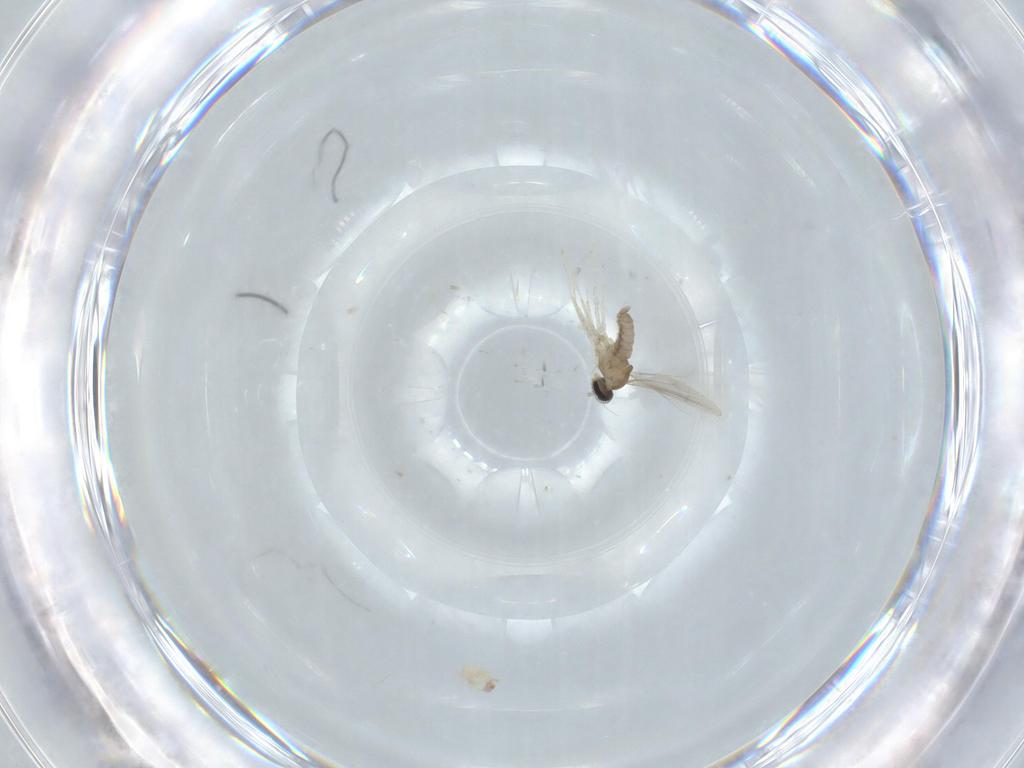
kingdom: Animalia
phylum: Arthropoda
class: Insecta
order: Diptera
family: Cecidomyiidae
